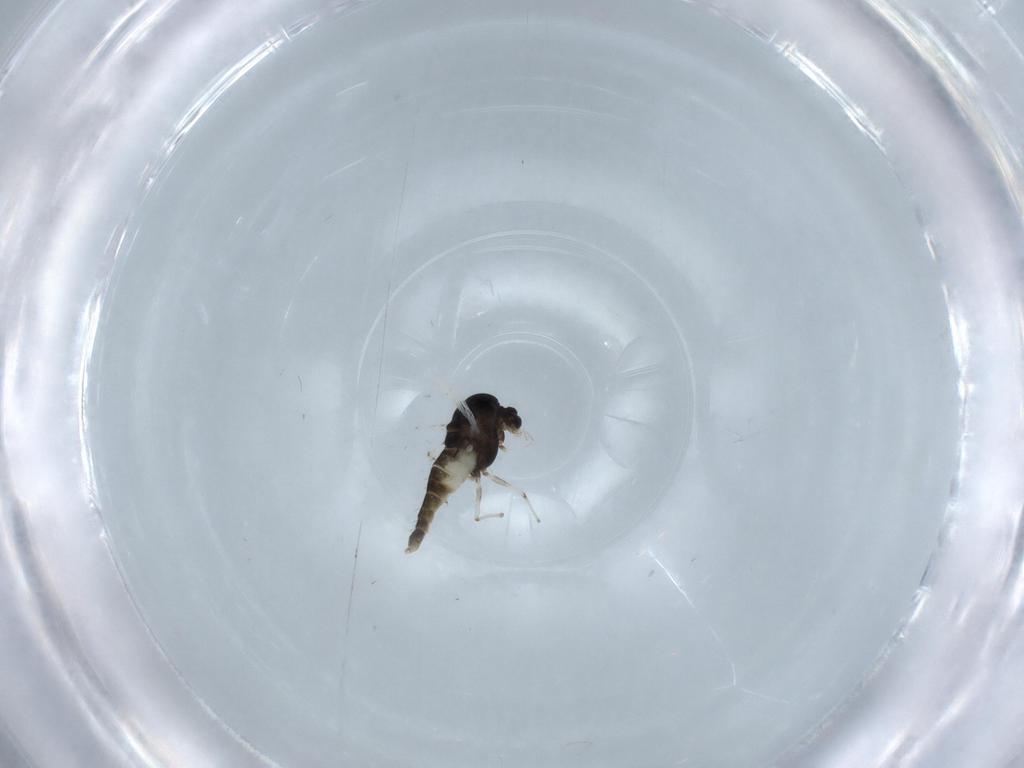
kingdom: Animalia
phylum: Arthropoda
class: Insecta
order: Diptera
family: Chironomidae
